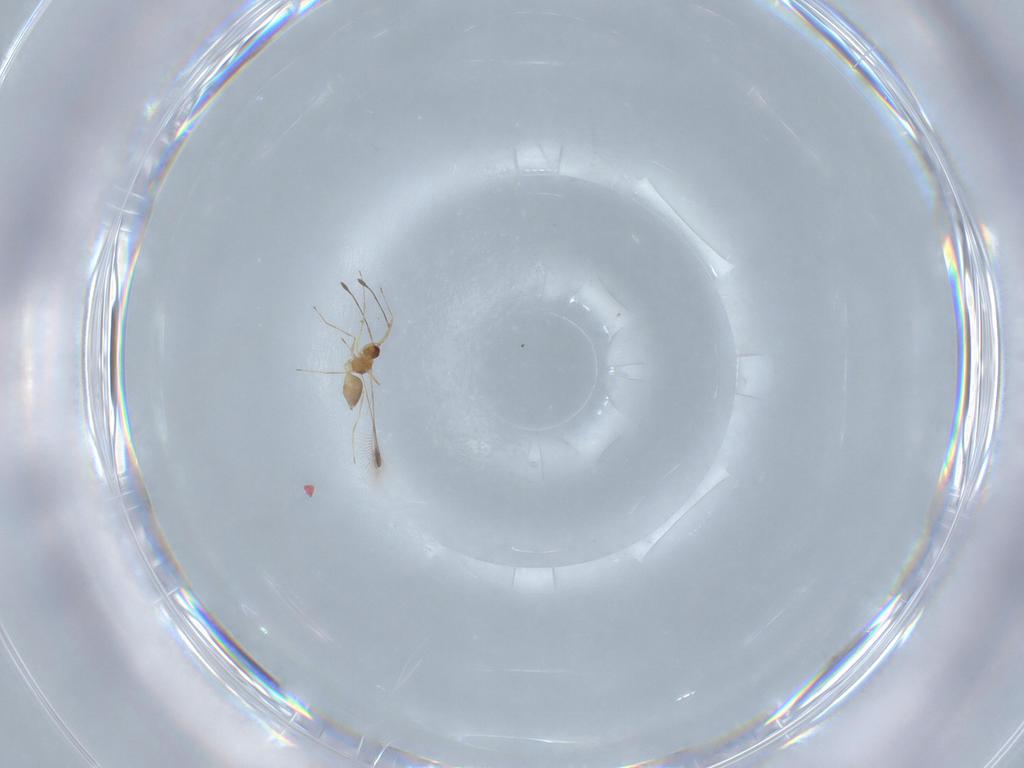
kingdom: Animalia
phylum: Arthropoda
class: Insecta
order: Hymenoptera
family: Mymaridae
